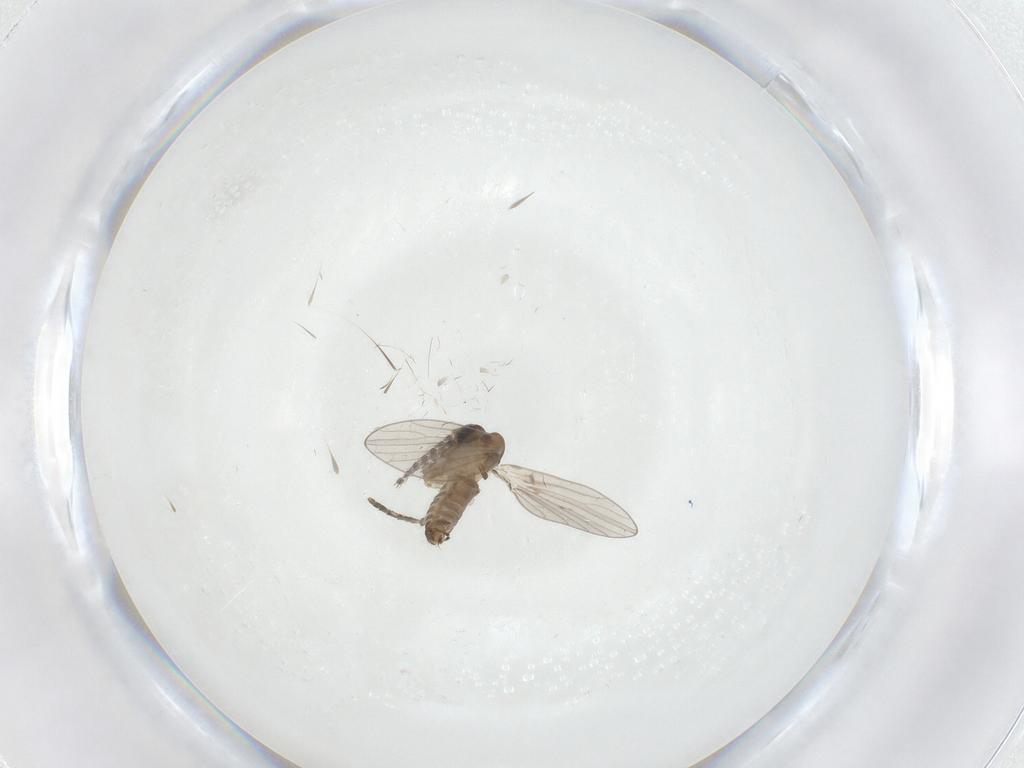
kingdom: Animalia
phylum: Arthropoda
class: Insecta
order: Diptera
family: Psychodidae
